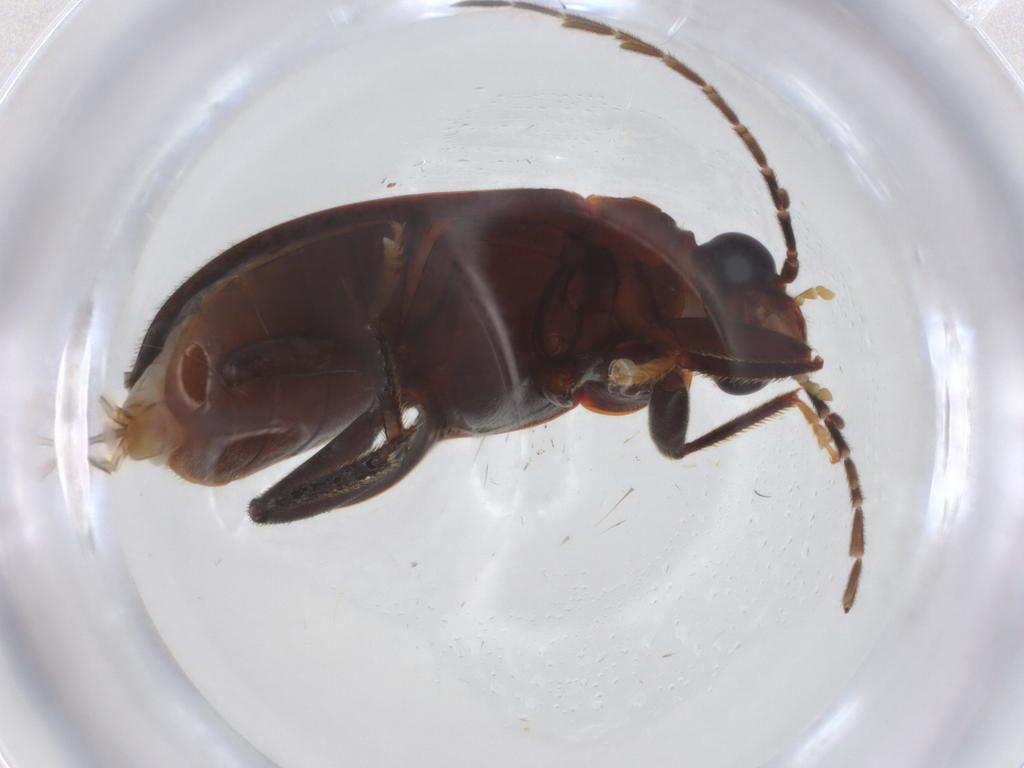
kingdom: Animalia
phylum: Arthropoda
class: Insecta
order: Coleoptera
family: Ptilodactylidae
